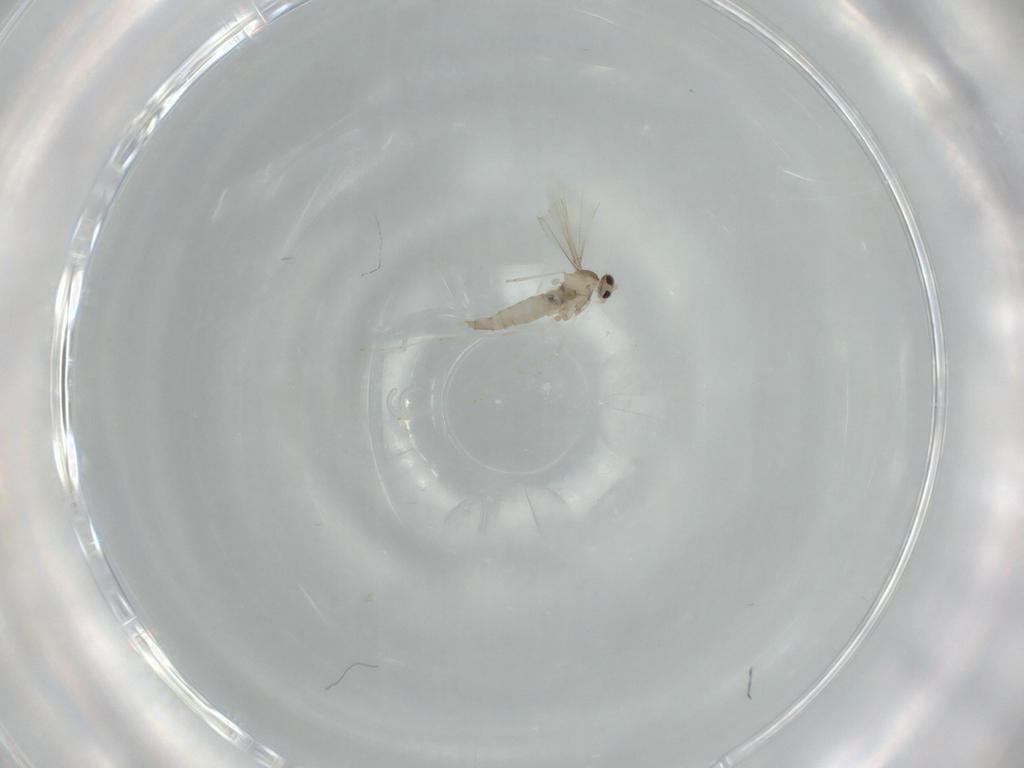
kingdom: Animalia
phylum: Arthropoda
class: Insecta
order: Diptera
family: Cecidomyiidae
